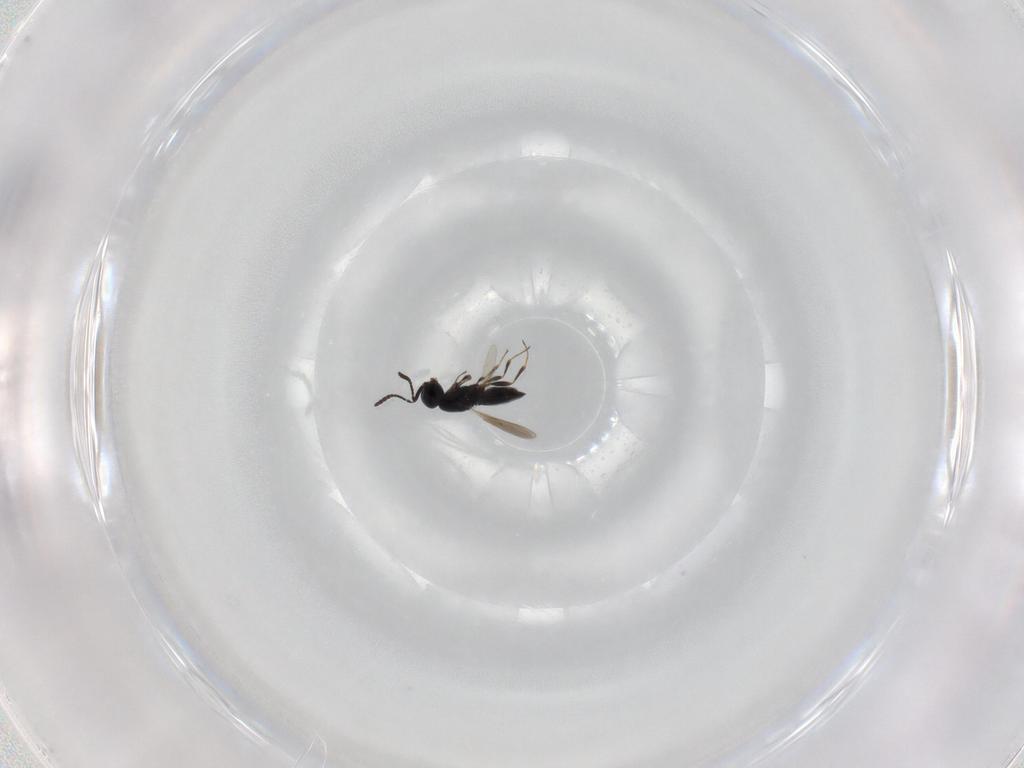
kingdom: Animalia
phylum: Arthropoda
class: Insecta
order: Hymenoptera
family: Scelionidae
